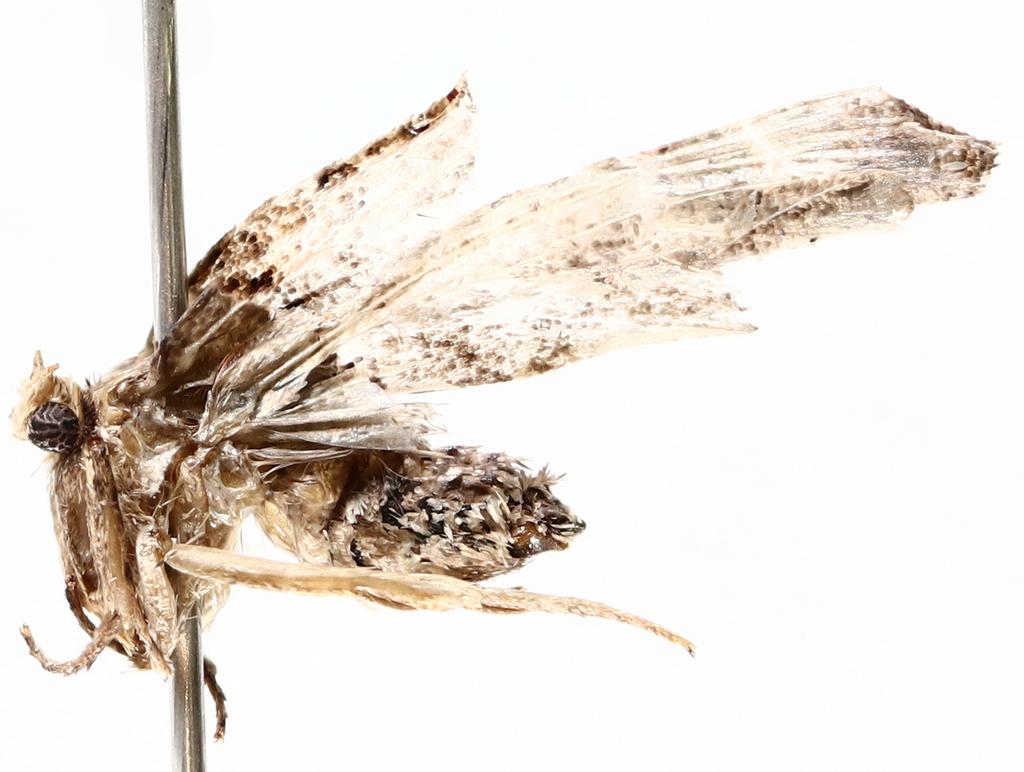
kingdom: Animalia
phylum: Arthropoda
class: Insecta
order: Diptera
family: Cecidomyiidae
